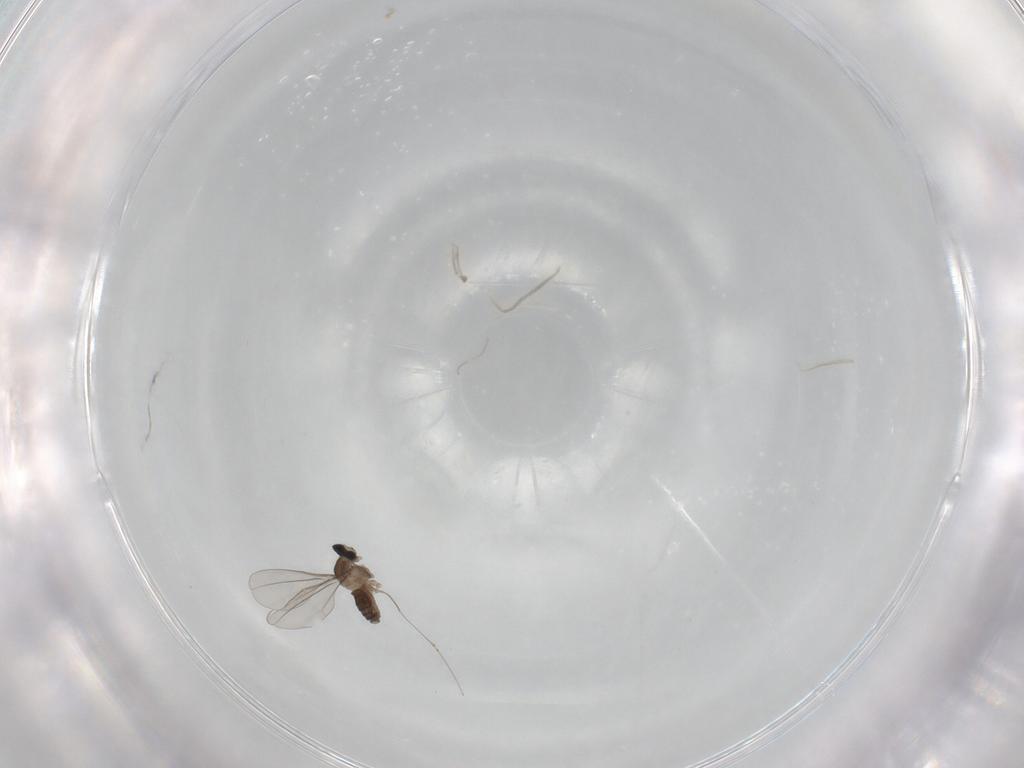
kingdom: Animalia
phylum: Arthropoda
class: Insecta
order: Diptera
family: Cecidomyiidae
